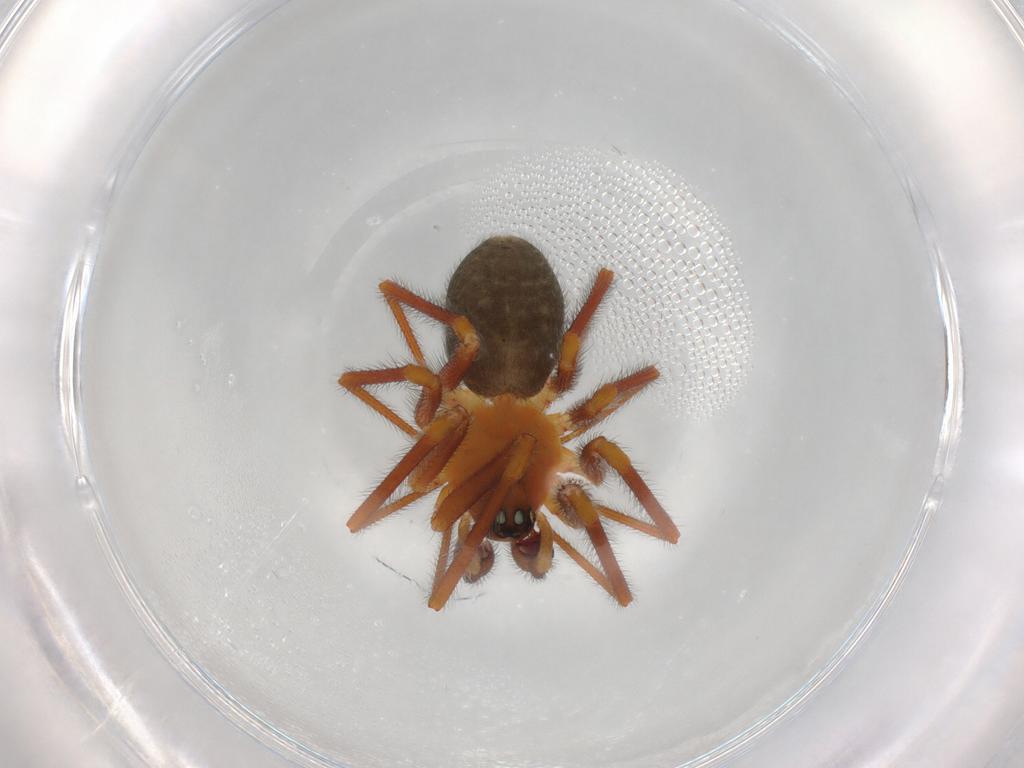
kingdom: Animalia
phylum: Arthropoda
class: Arachnida
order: Araneae
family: Linyphiidae
